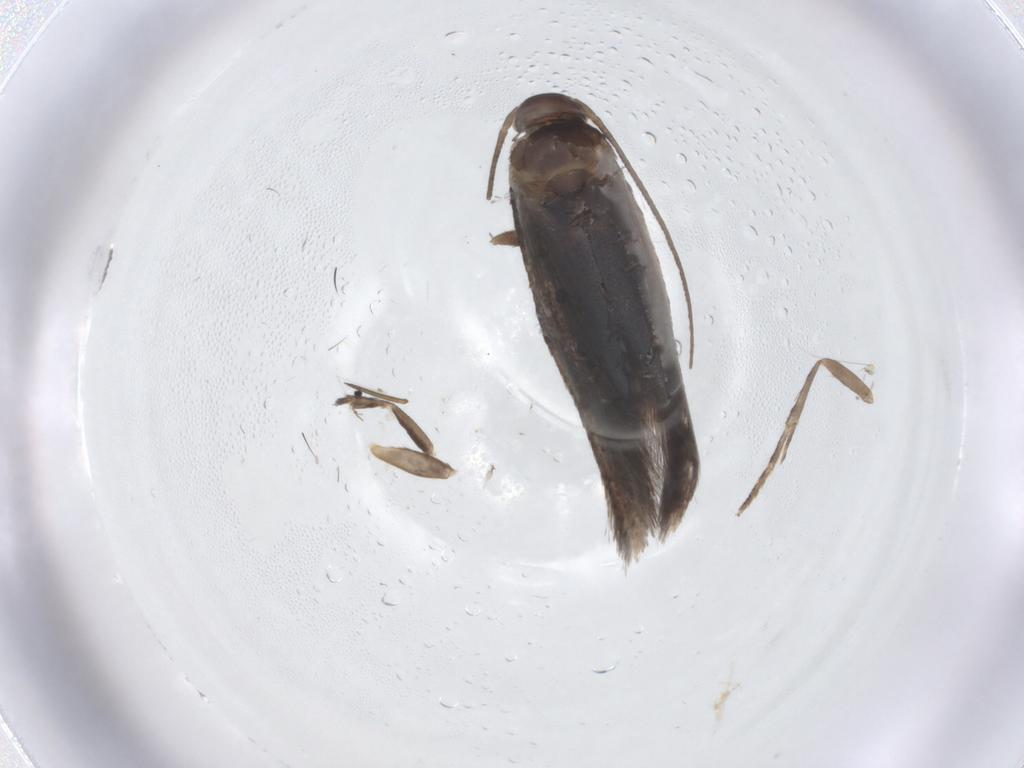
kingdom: Animalia
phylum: Arthropoda
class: Insecta
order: Lepidoptera
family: Elachistidae
